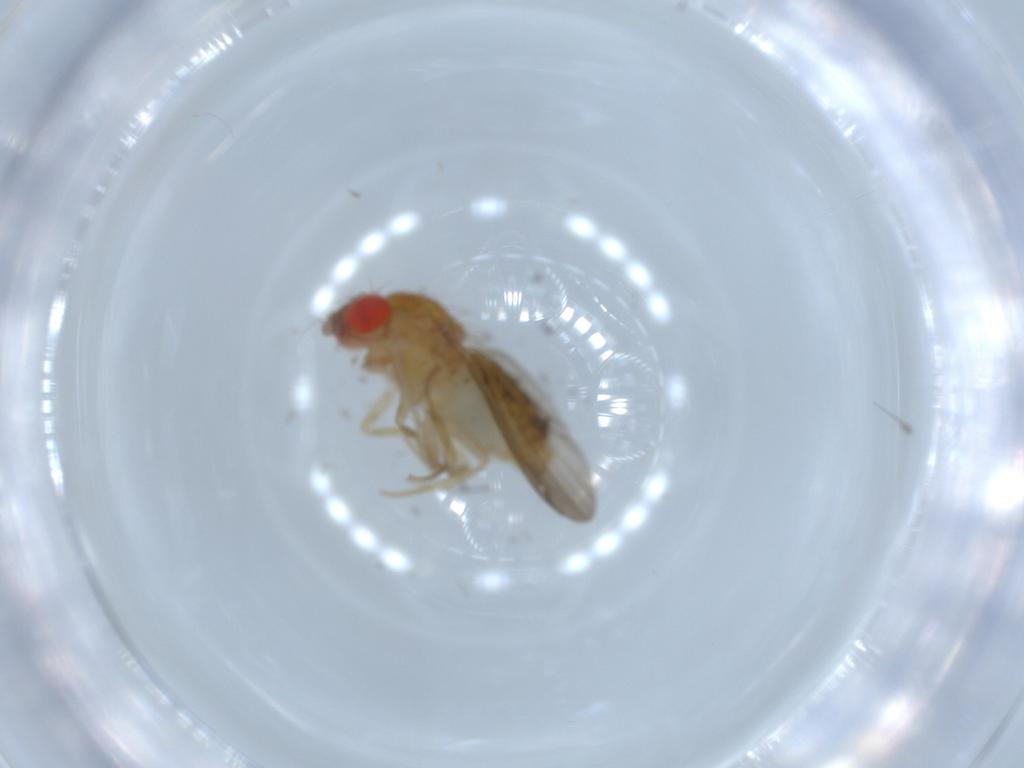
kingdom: Animalia
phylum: Arthropoda
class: Insecta
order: Diptera
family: Drosophilidae
